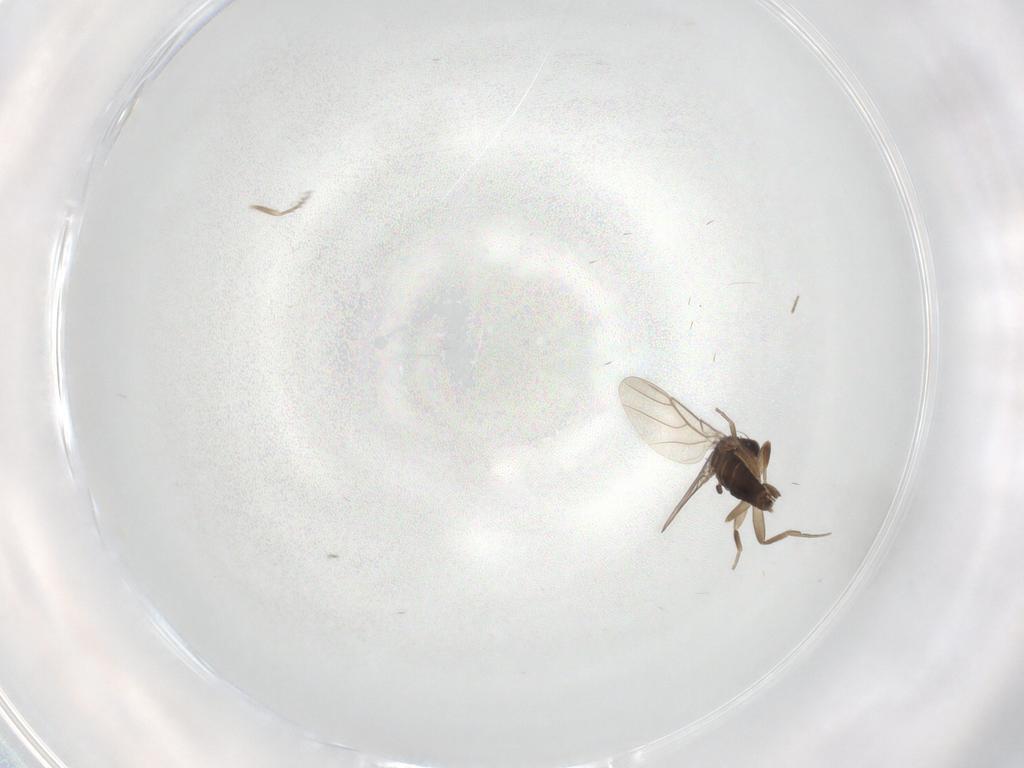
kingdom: Animalia
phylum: Arthropoda
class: Insecta
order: Diptera
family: Phoridae
